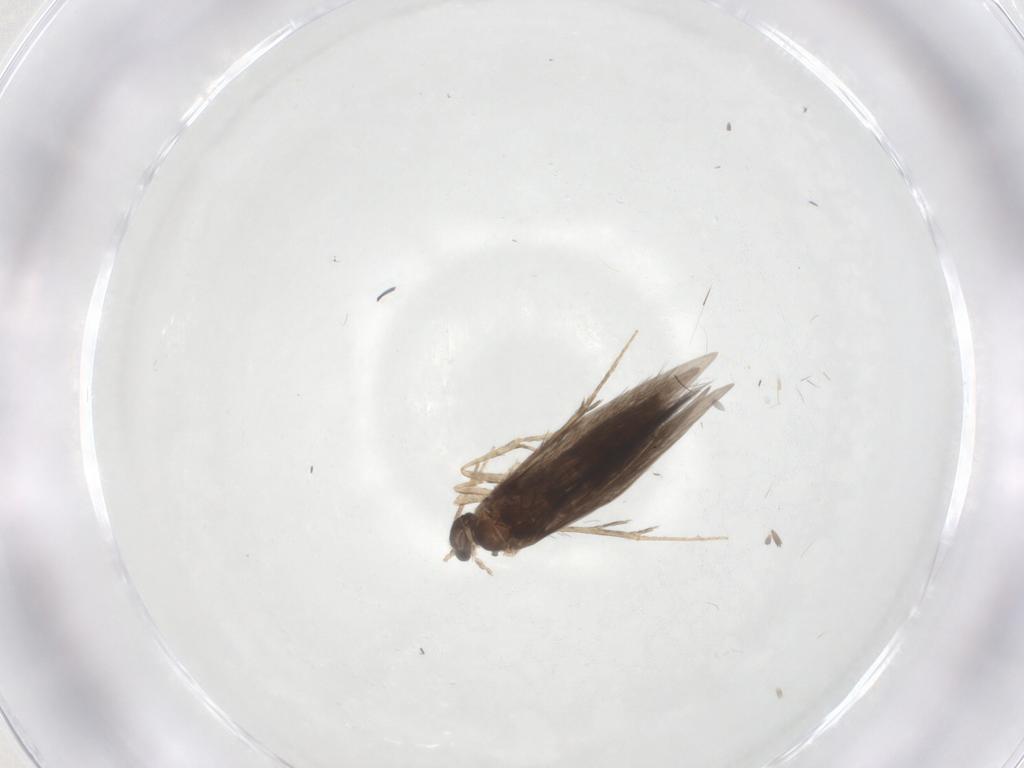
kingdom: Animalia
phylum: Arthropoda
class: Insecta
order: Trichoptera
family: Hydroptilidae
